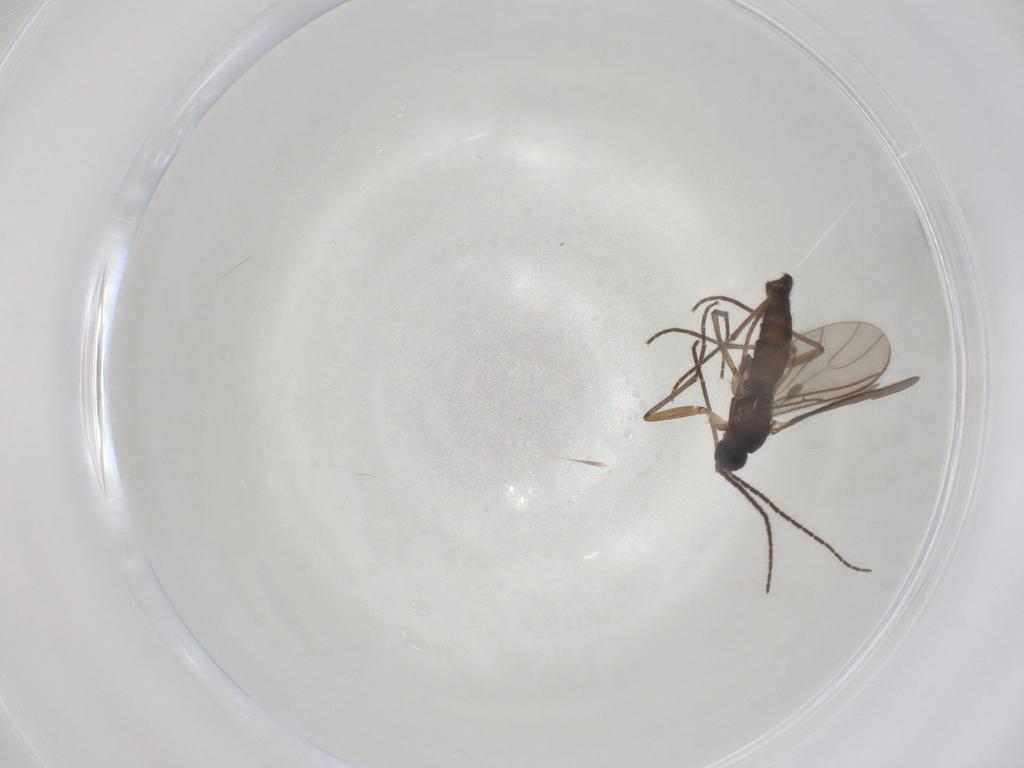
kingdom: Animalia
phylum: Arthropoda
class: Insecta
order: Diptera
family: Sciaridae
